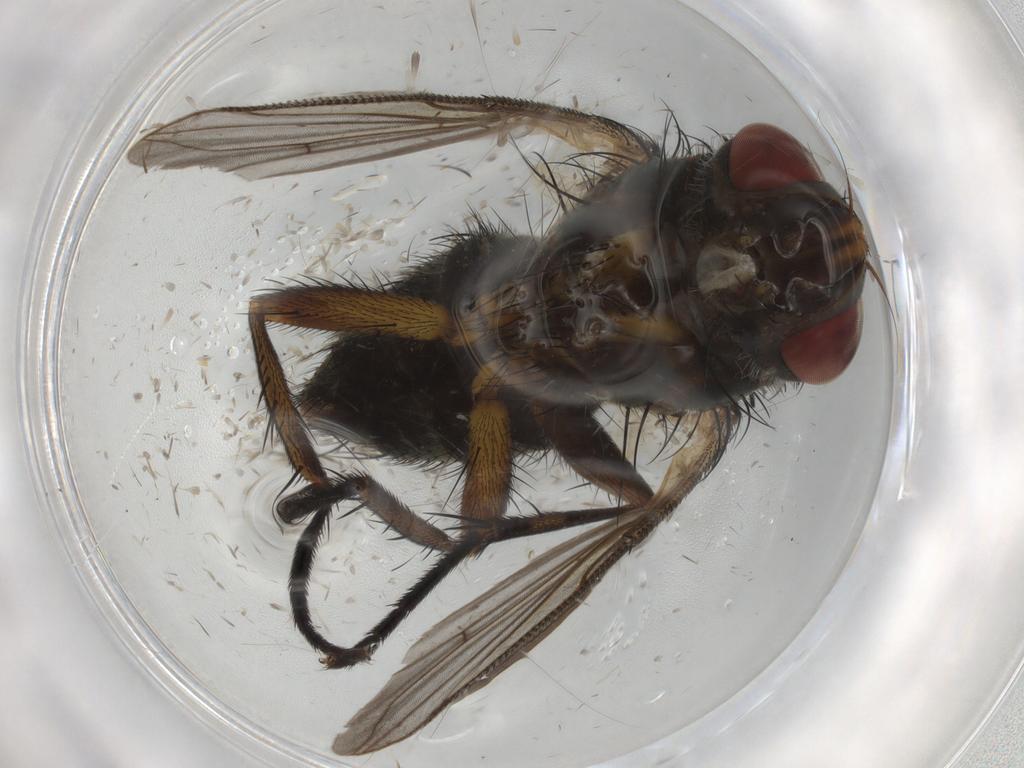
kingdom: Animalia
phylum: Arthropoda
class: Insecta
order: Diptera
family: Tachinidae
